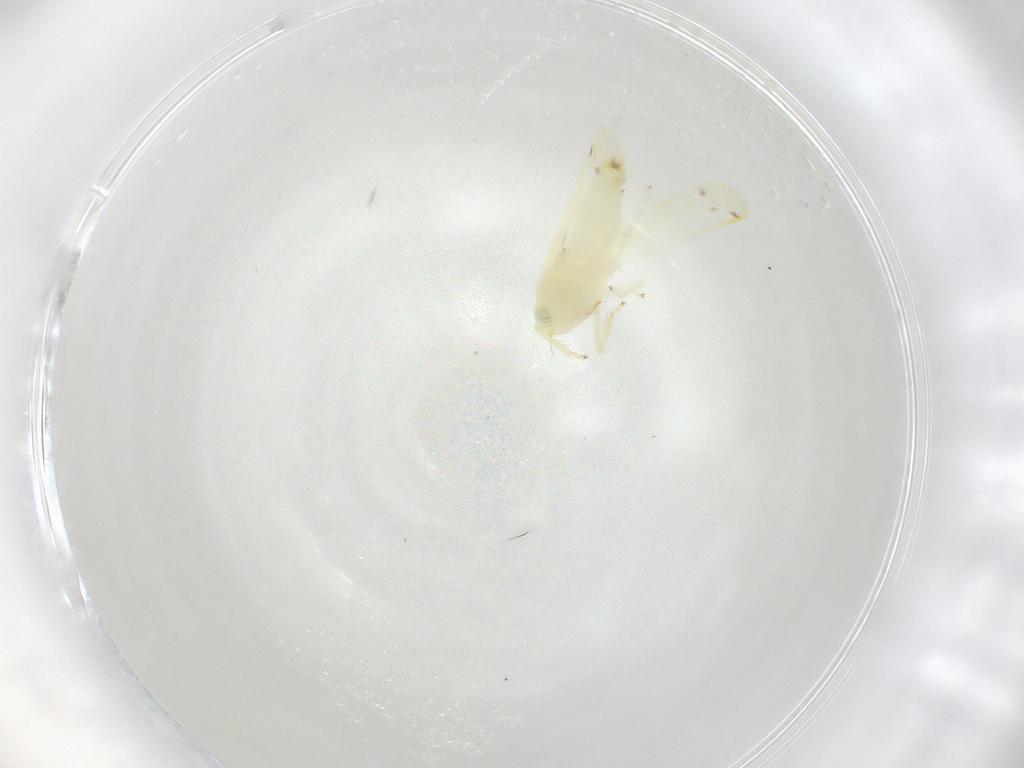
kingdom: Animalia
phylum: Arthropoda
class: Insecta
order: Hemiptera
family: Cicadellidae
